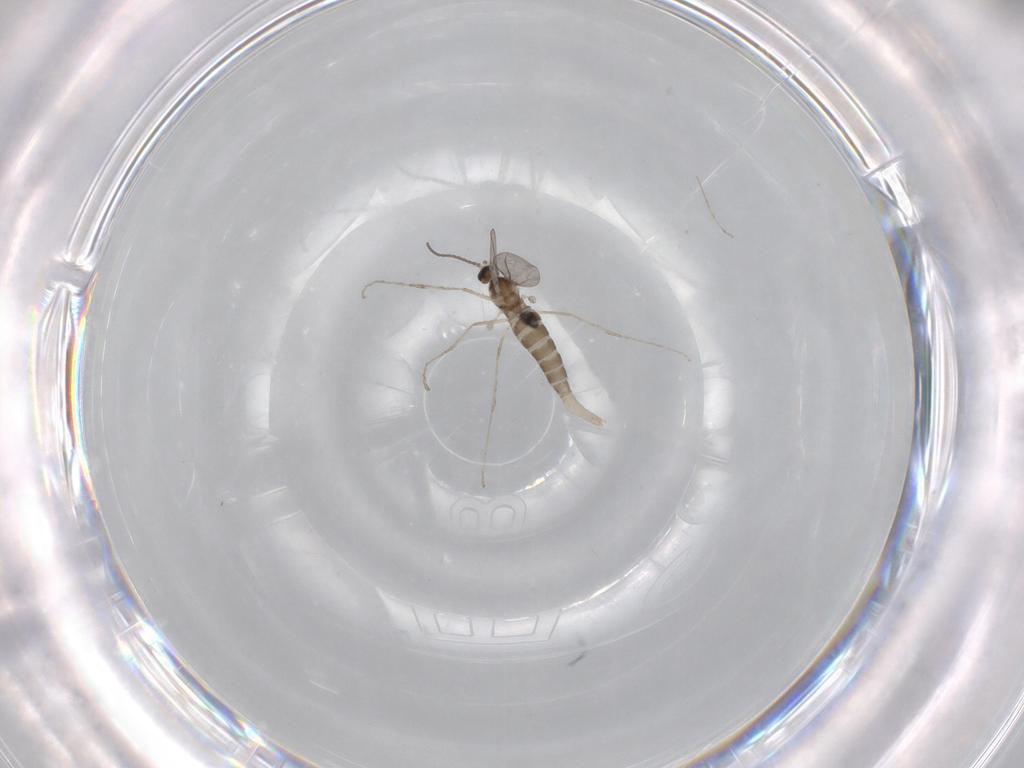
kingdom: Animalia
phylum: Arthropoda
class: Insecta
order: Diptera
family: Chironomidae
